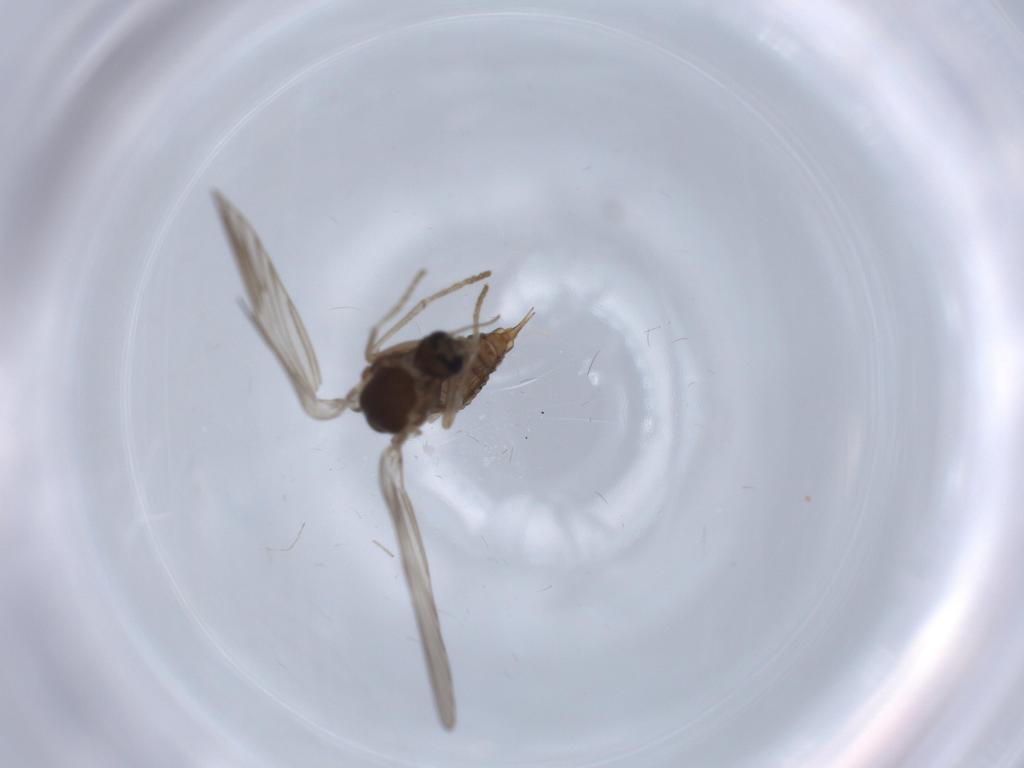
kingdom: Animalia
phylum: Arthropoda
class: Insecta
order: Diptera
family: Psychodidae
